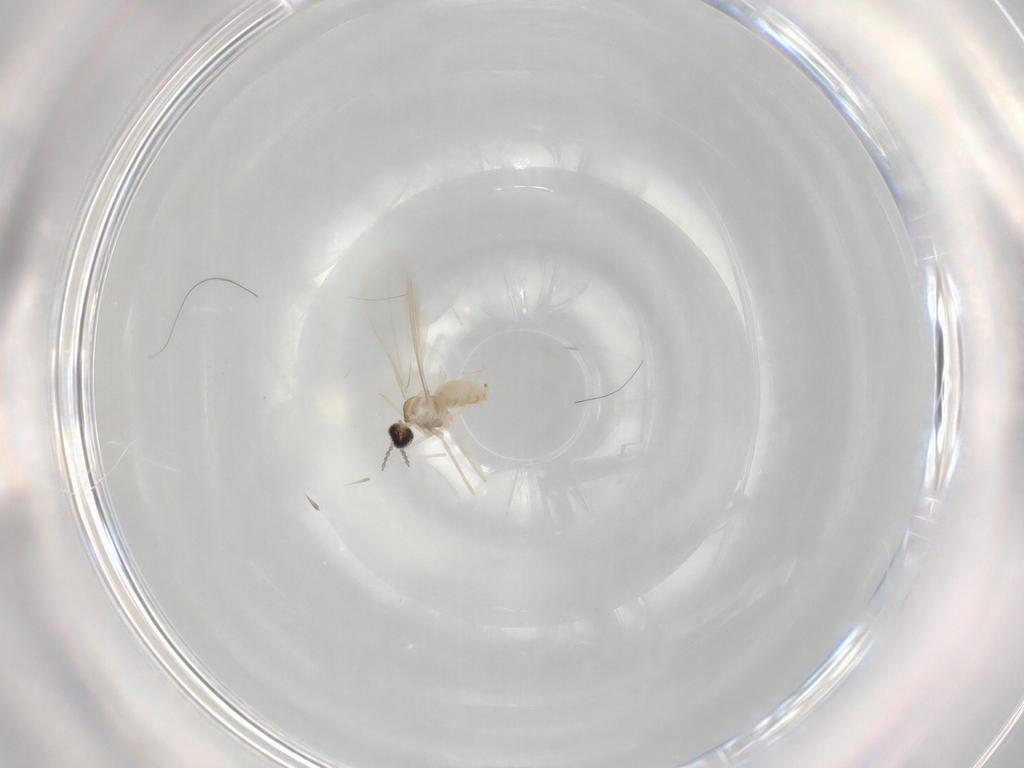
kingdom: Animalia
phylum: Arthropoda
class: Insecta
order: Diptera
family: Cecidomyiidae
